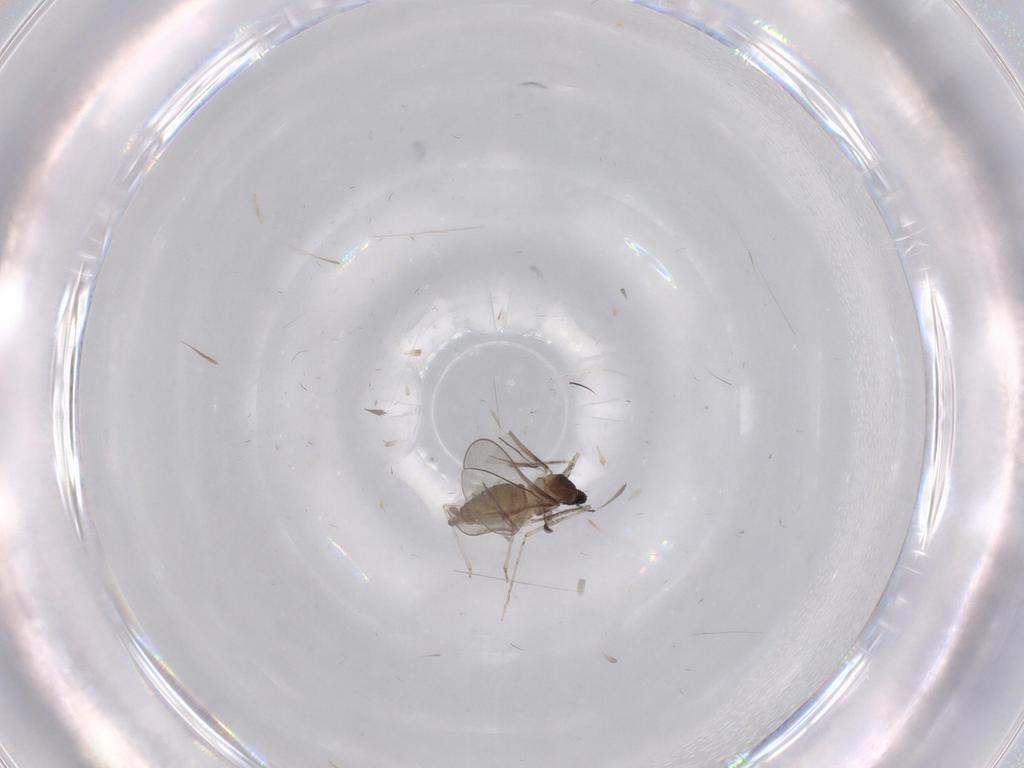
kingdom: Animalia
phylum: Arthropoda
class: Insecta
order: Diptera
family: Cecidomyiidae
